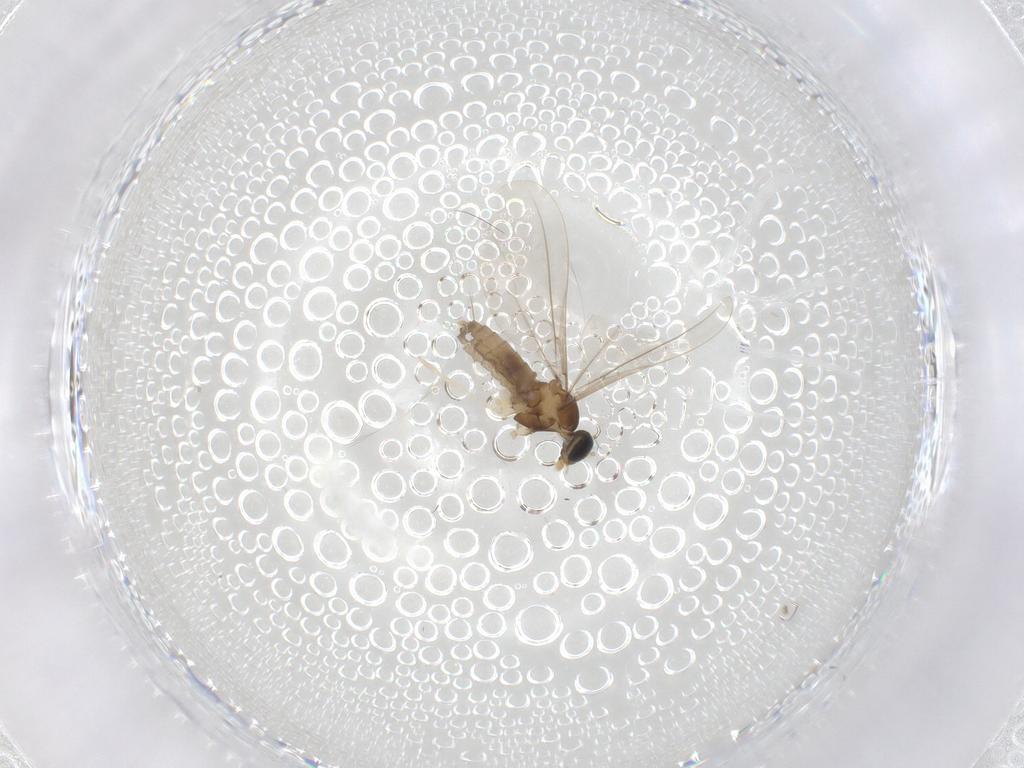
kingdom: Animalia
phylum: Arthropoda
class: Insecta
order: Diptera
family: Cecidomyiidae
